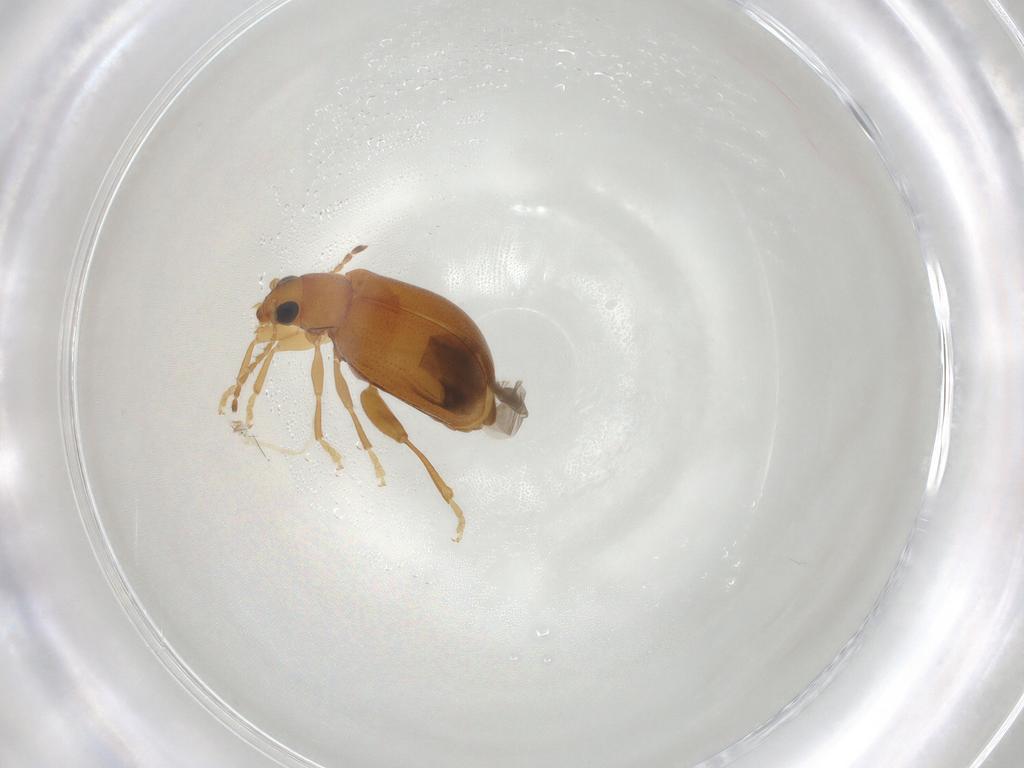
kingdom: Animalia
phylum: Arthropoda
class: Insecta
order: Coleoptera
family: Chrysomelidae
